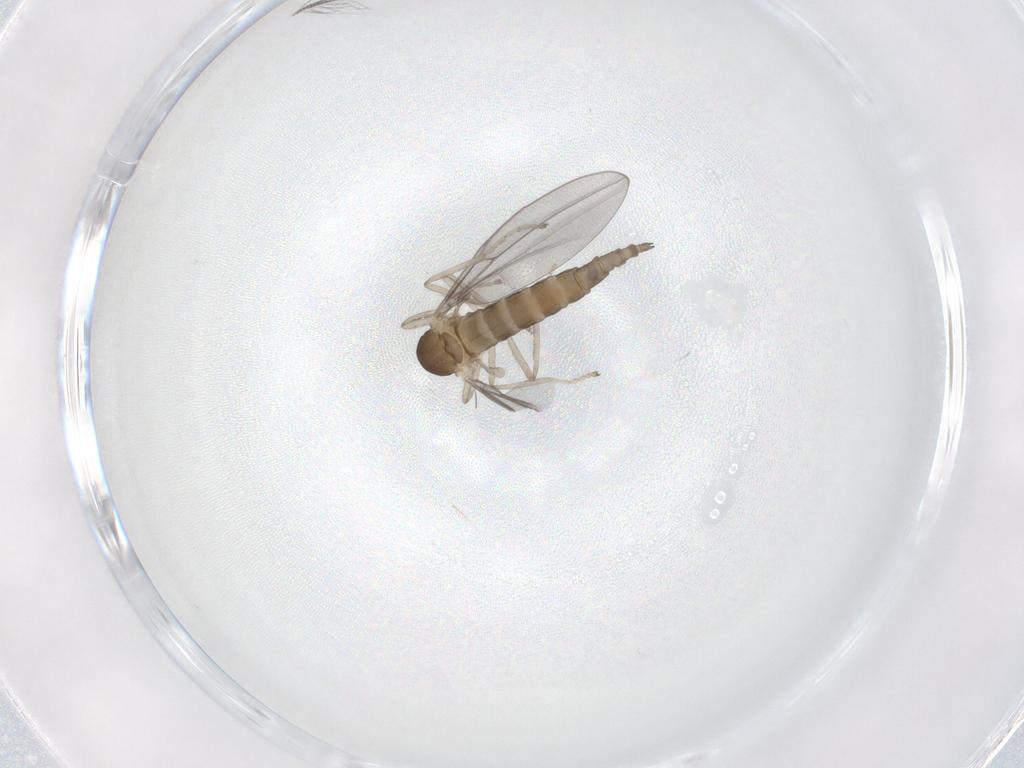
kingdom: Animalia
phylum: Arthropoda
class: Insecta
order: Diptera
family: Cecidomyiidae
